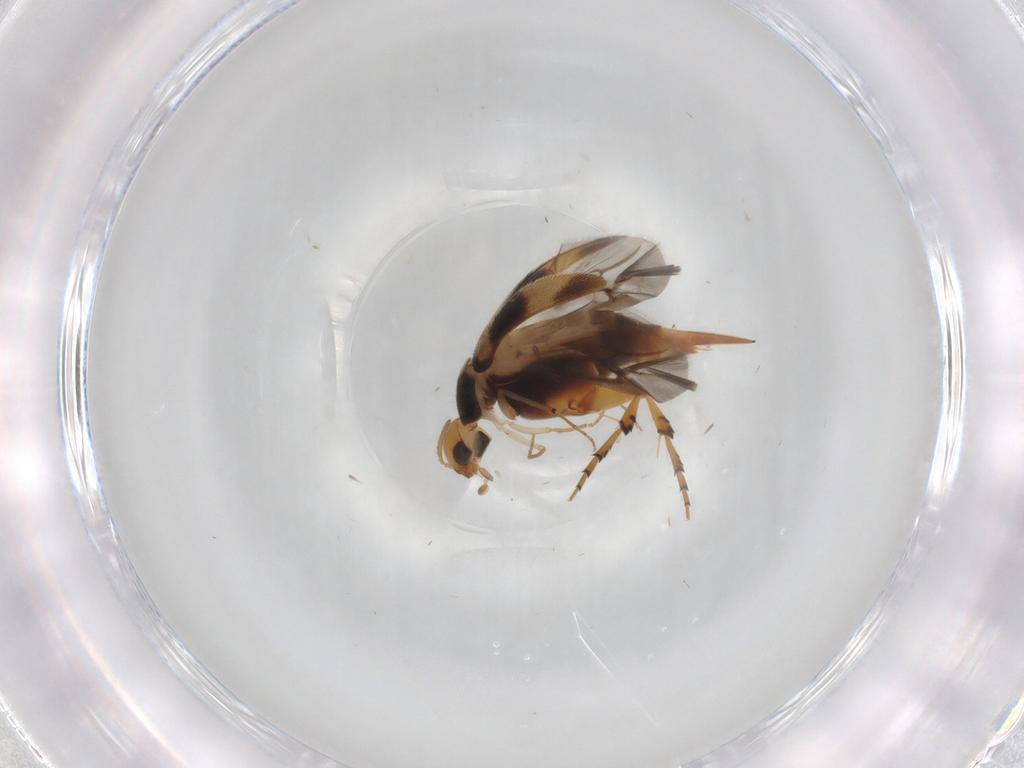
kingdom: Animalia
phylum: Arthropoda
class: Insecta
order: Coleoptera
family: Mordellidae
